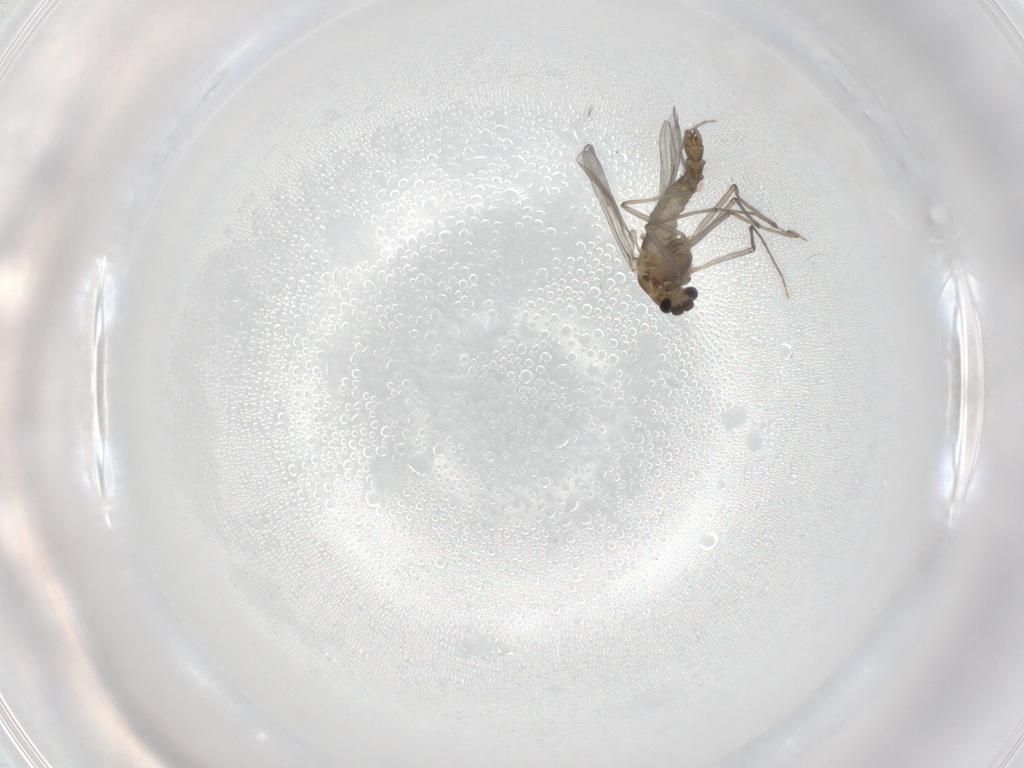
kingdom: Animalia
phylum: Arthropoda
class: Insecta
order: Diptera
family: Chironomidae
